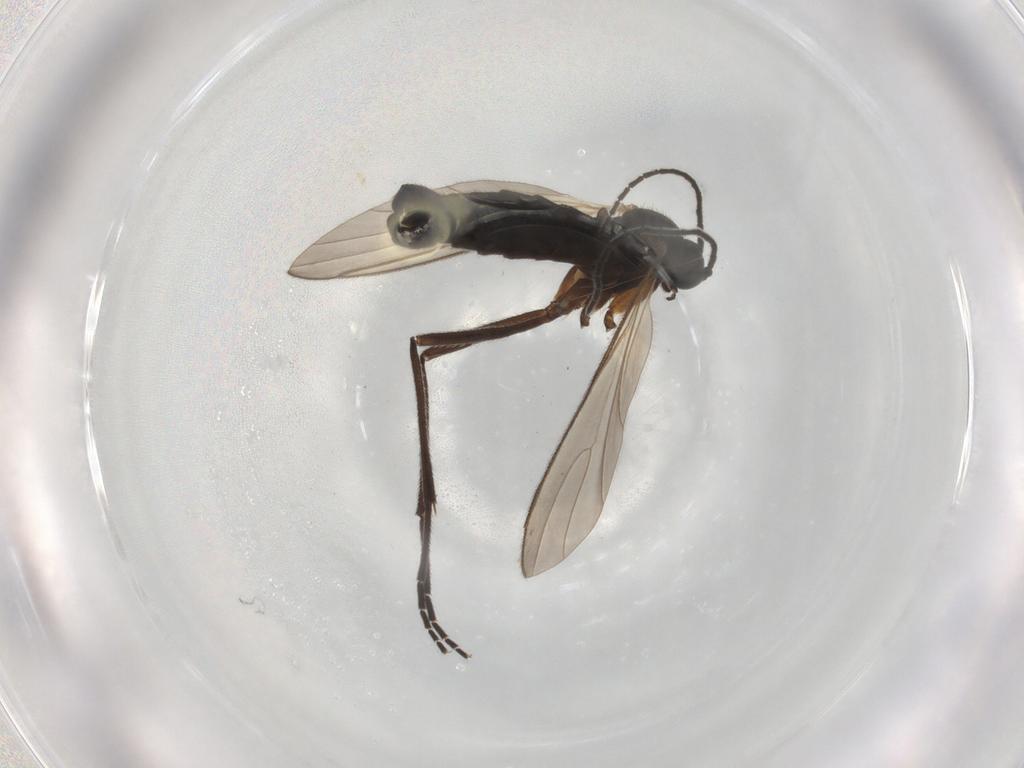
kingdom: Animalia
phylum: Arthropoda
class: Insecta
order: Diptera
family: Sciaridae
